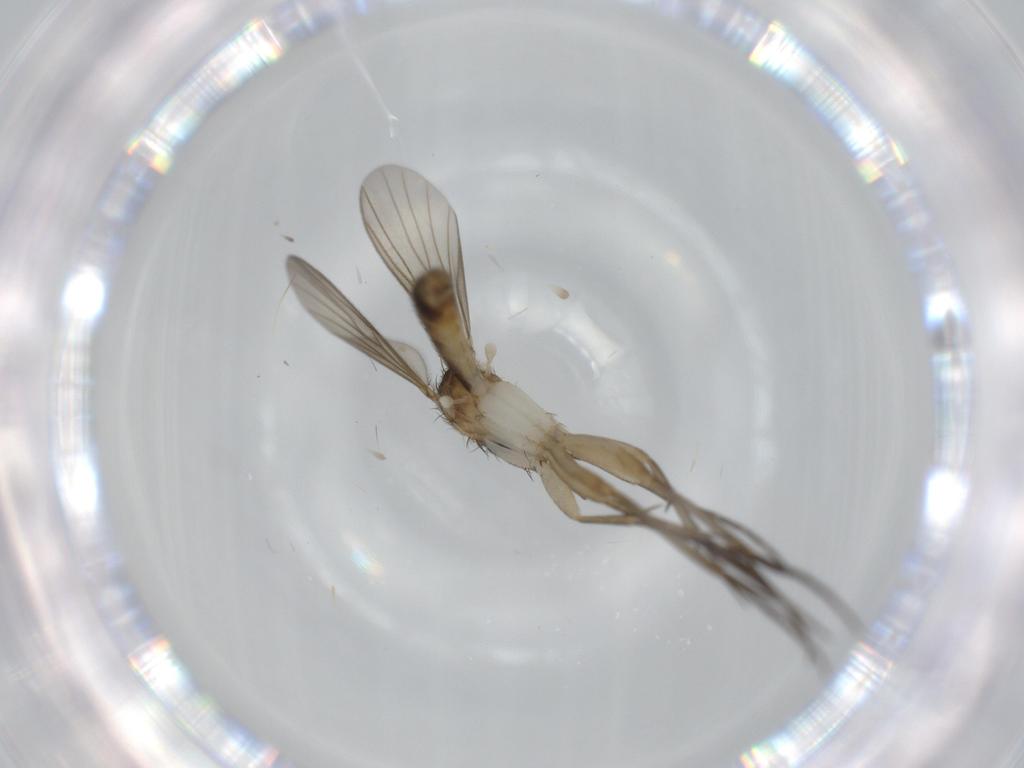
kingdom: Animalia
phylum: Arthropoda
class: Insecta
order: Diptera
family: Mycetophilidae
